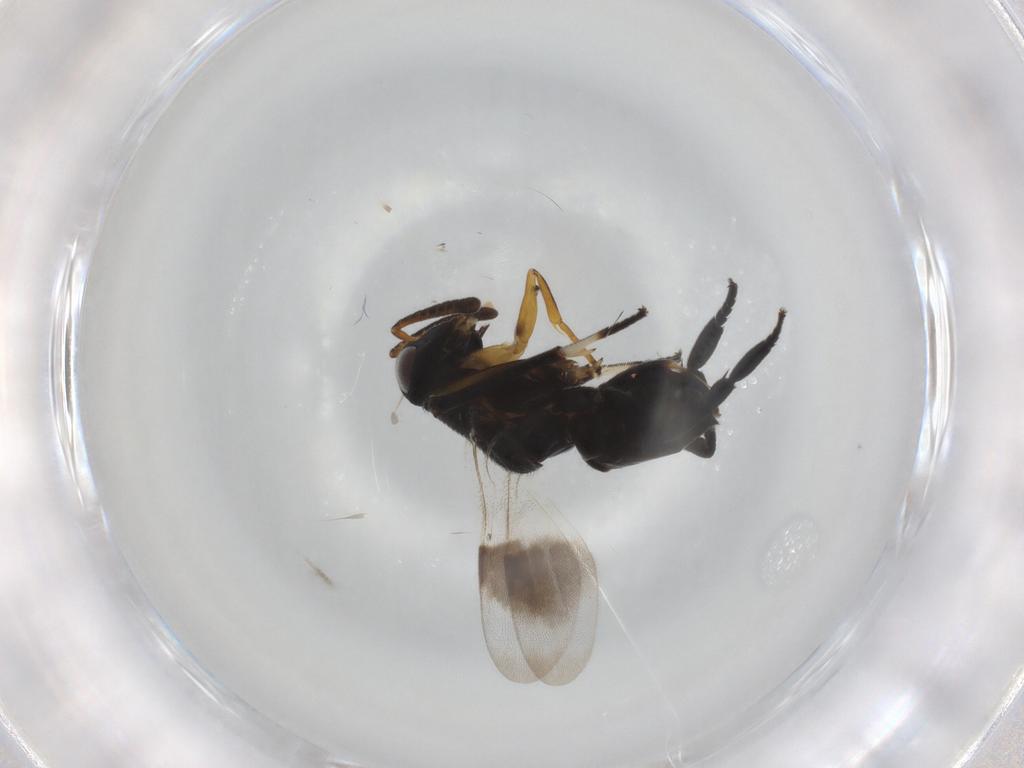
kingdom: Animalia
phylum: Arthropoda
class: Insecta
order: Hymenoptera
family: Encyrtidae
